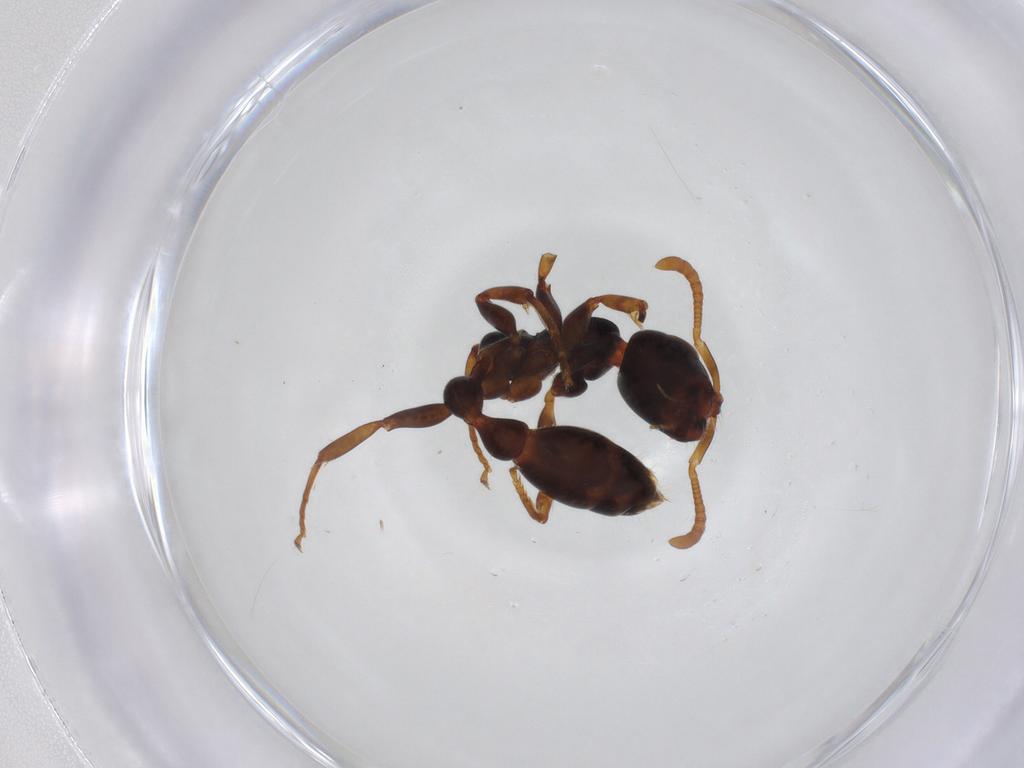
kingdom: Animalia
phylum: Arthropoda
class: Insecta
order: Hymenoptera
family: Formicidae
